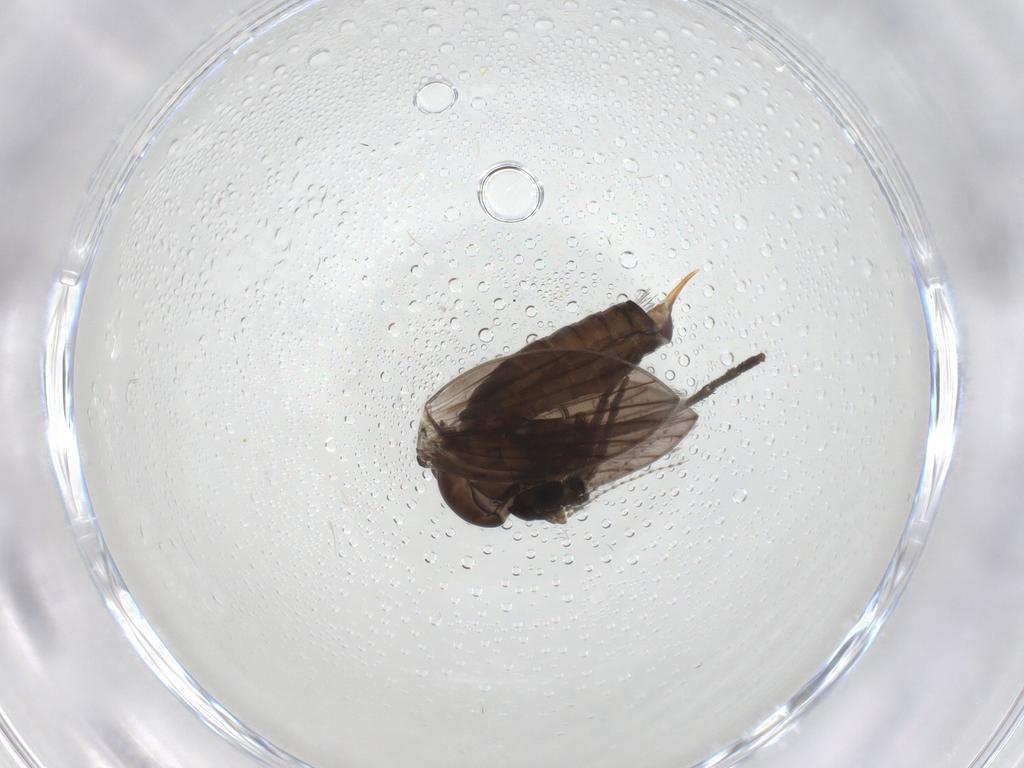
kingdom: Animalia
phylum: Arthropoda
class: Insecta
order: Diptera
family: Psychodidae
